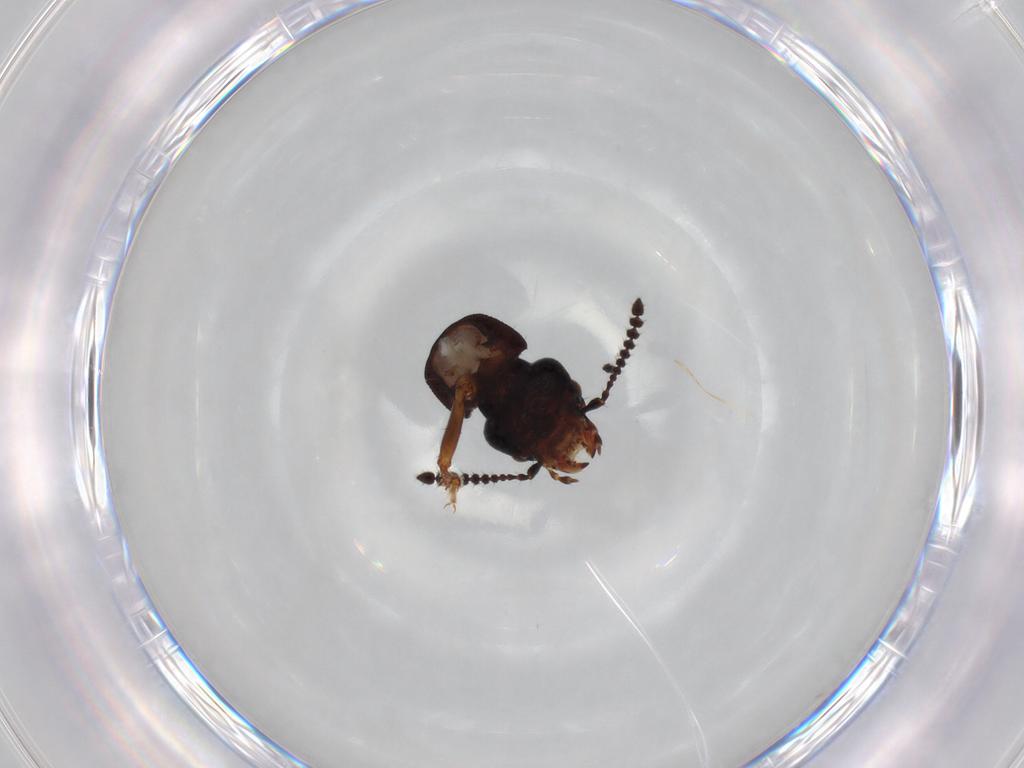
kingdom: Animalia
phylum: Arthropoda
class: Insecta
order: Coleoptera
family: Staphylinidae
